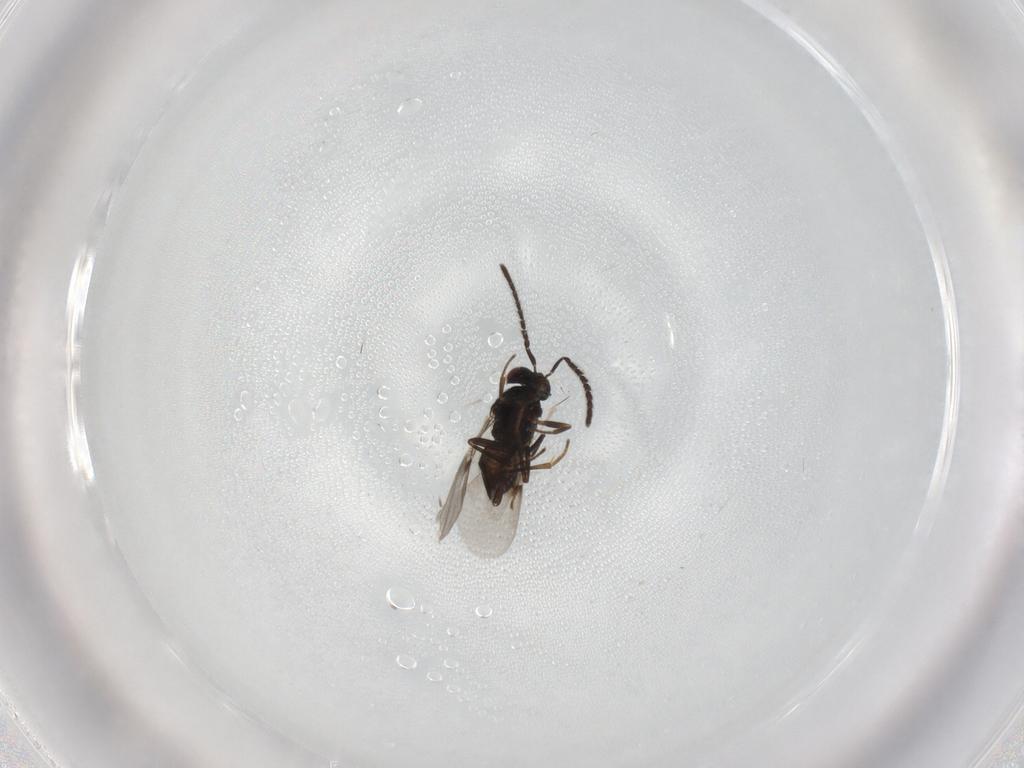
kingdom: Animalia
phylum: Arthropoda
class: Insecta
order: Hymenoptera
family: Encyrtidae
